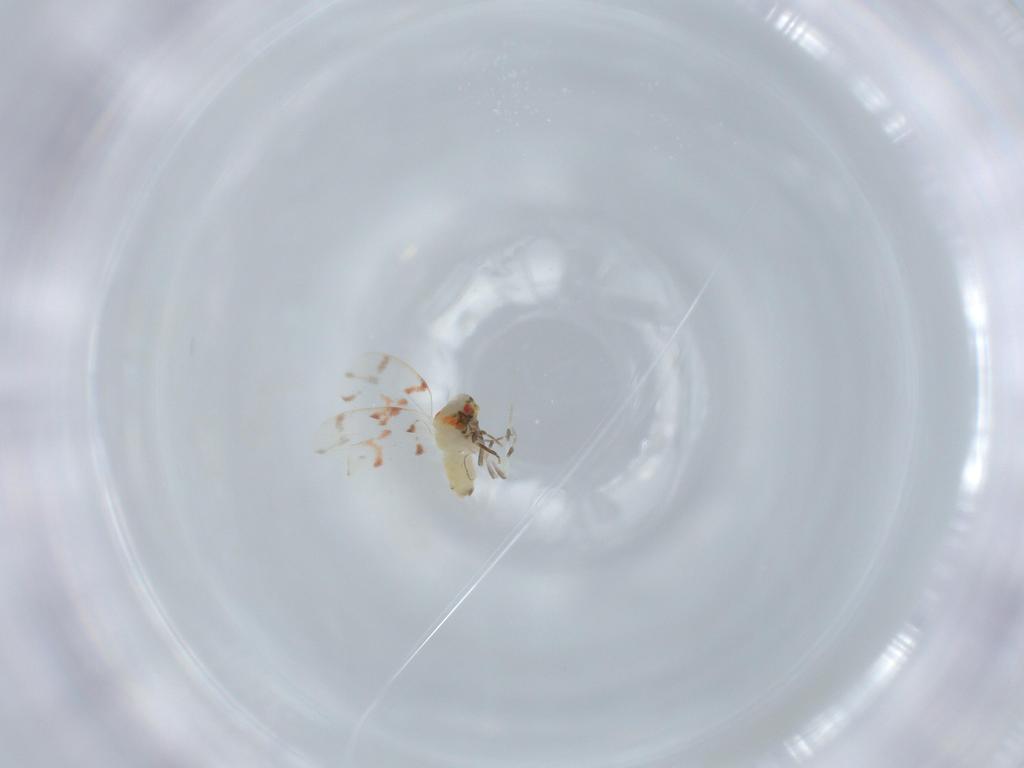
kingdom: Animalia
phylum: Arthropoda
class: Insecta
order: Hemiptera
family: Aleyrodidae
